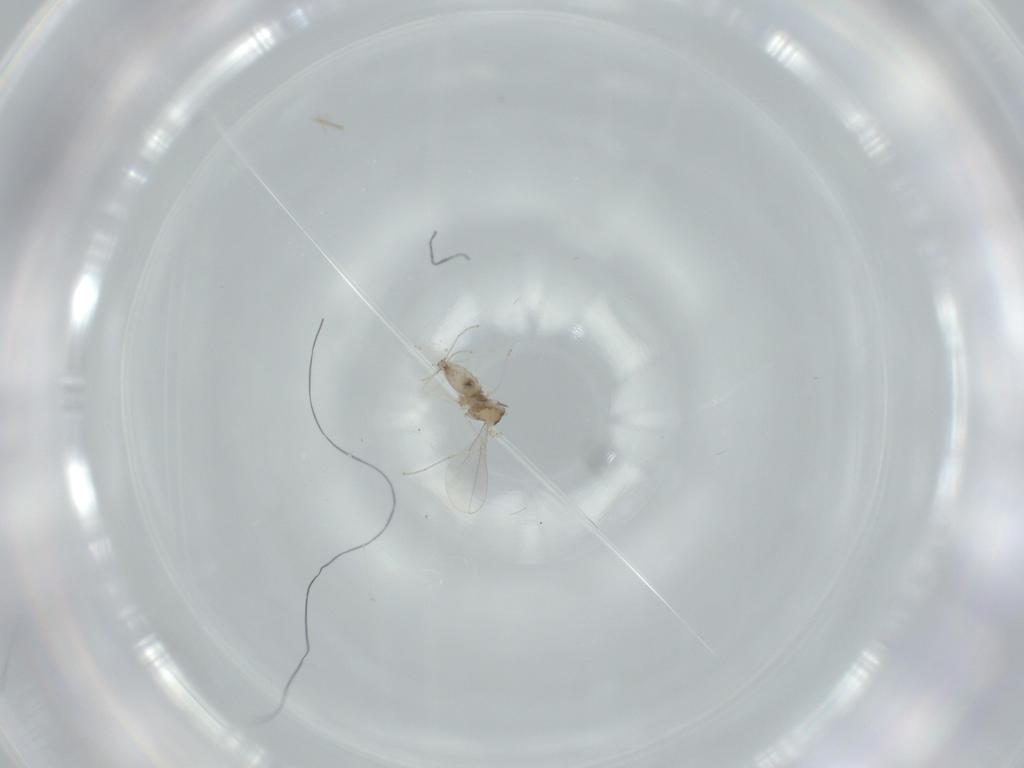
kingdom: Animalia
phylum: Arthropoda
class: Insecta
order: Diptera
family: Cecidomyiidae
